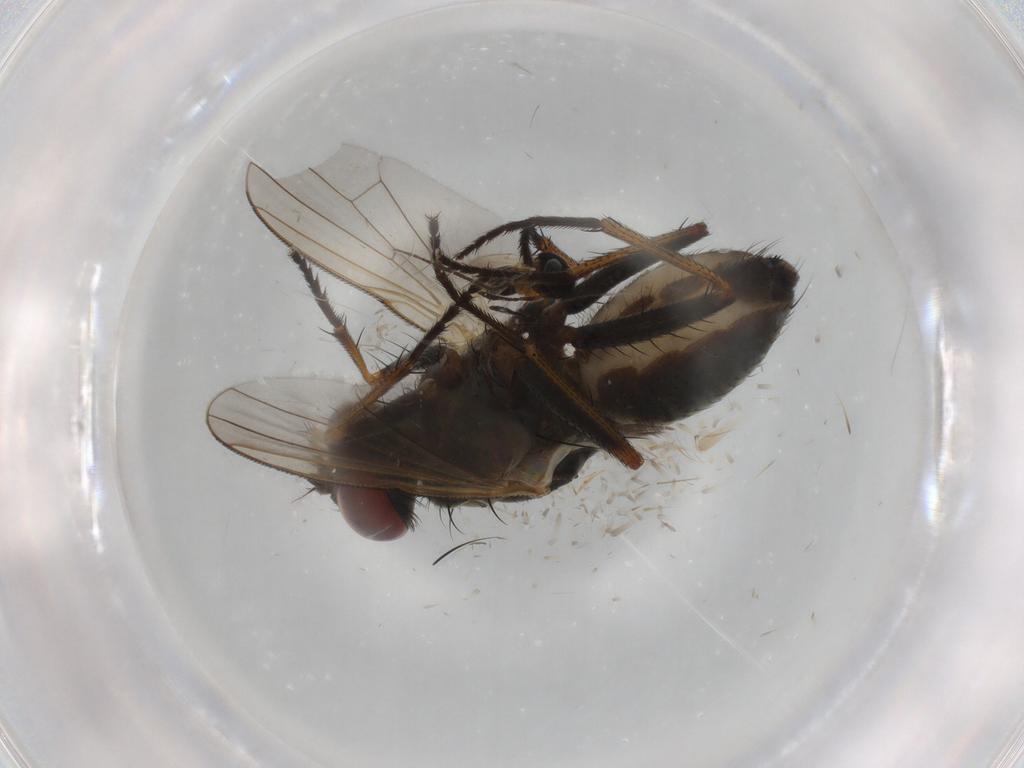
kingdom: Animalia
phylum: Arthropoda
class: Insecta
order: Diptera
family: Muscidae
